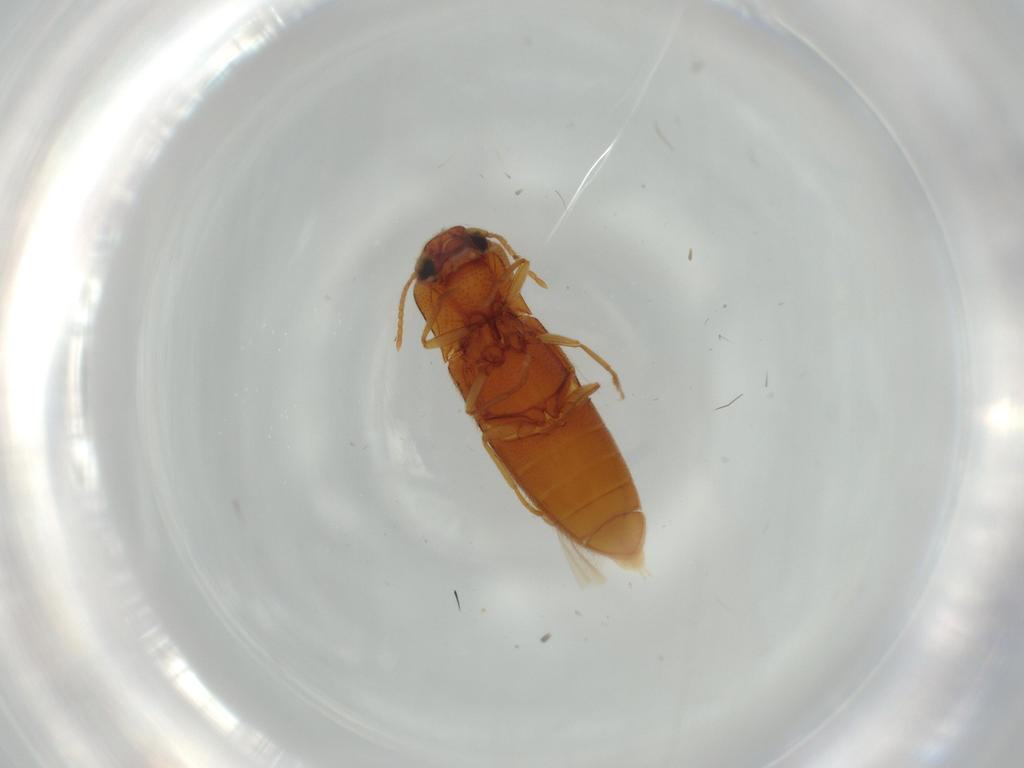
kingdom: Animalia
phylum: Arthropoda
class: Insecta
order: Coleoptera
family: Elateridae
